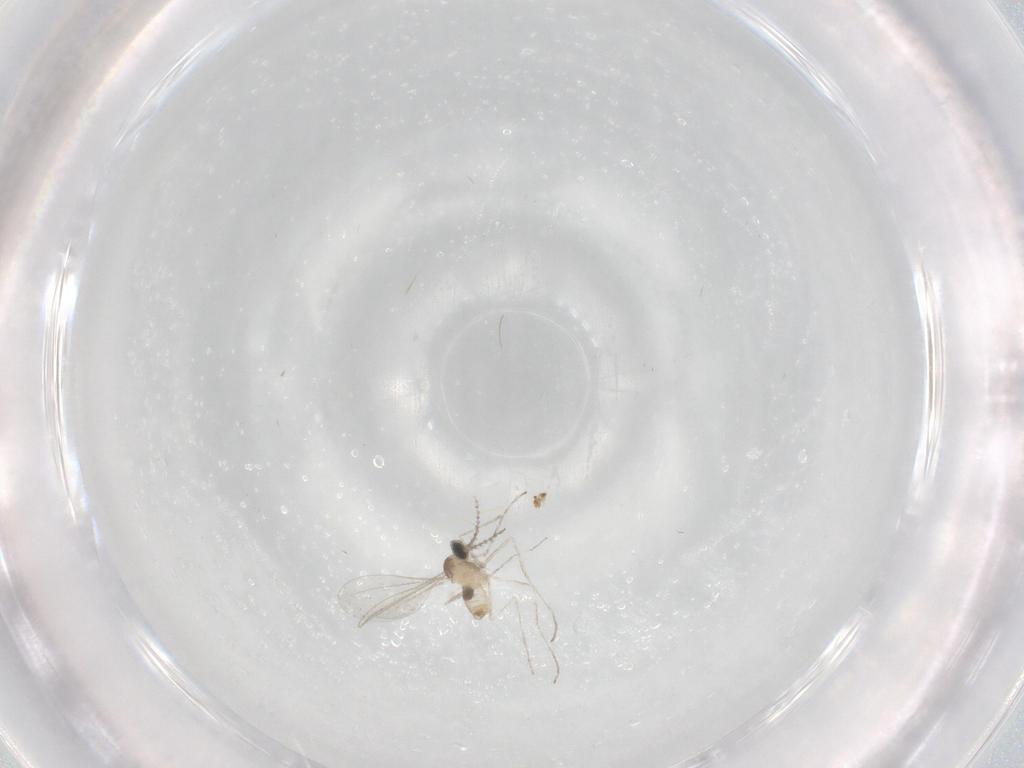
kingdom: Animalia
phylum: Arthropoda
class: Insecta
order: Diptera
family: Cecidomyiidae
